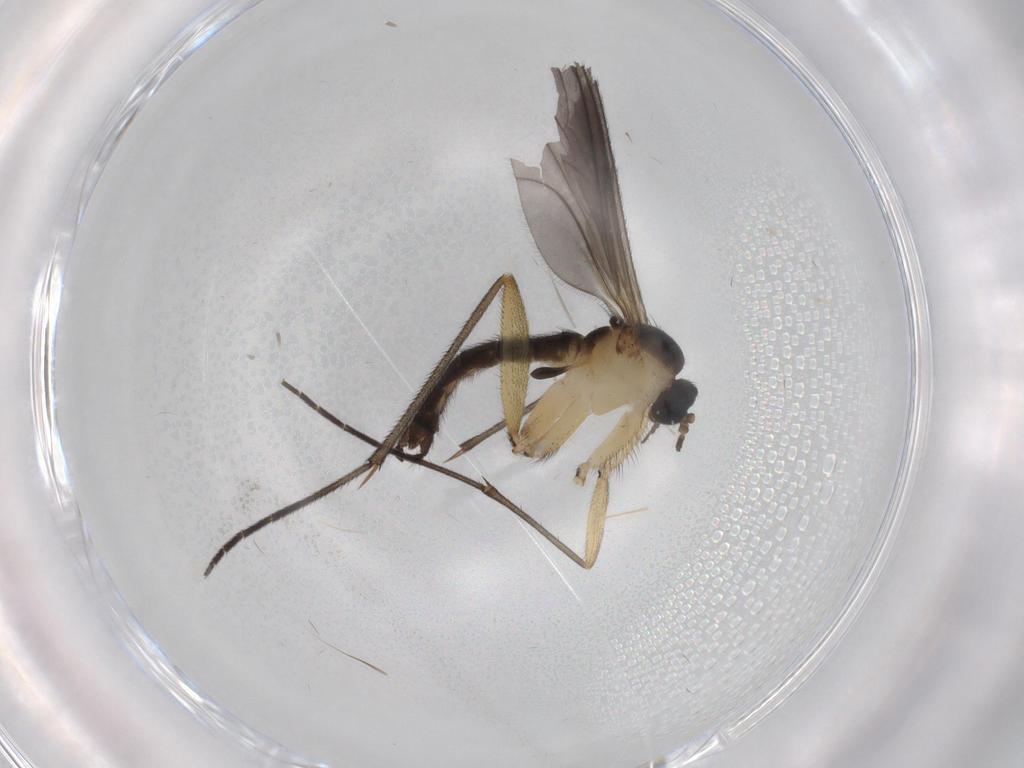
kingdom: Animalia
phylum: Arthropoda
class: Insecta
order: Diptera
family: Sciaridae
